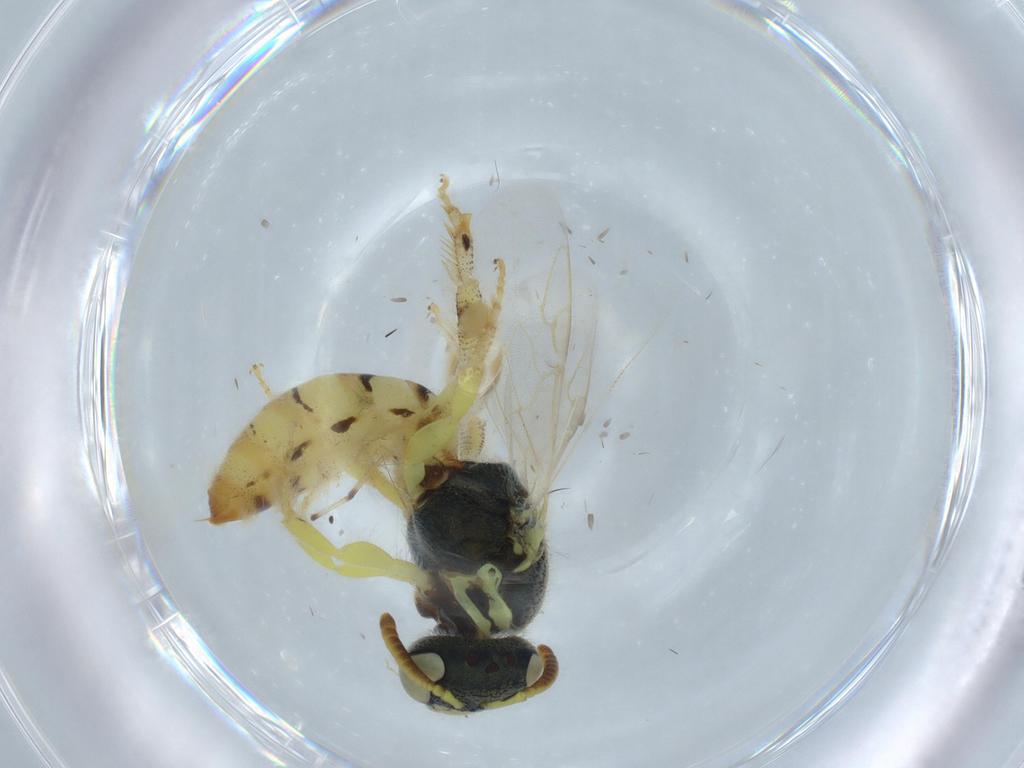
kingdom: Animalia
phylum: Arthropoda
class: Insecta
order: Hymenoptera
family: Halictidae
